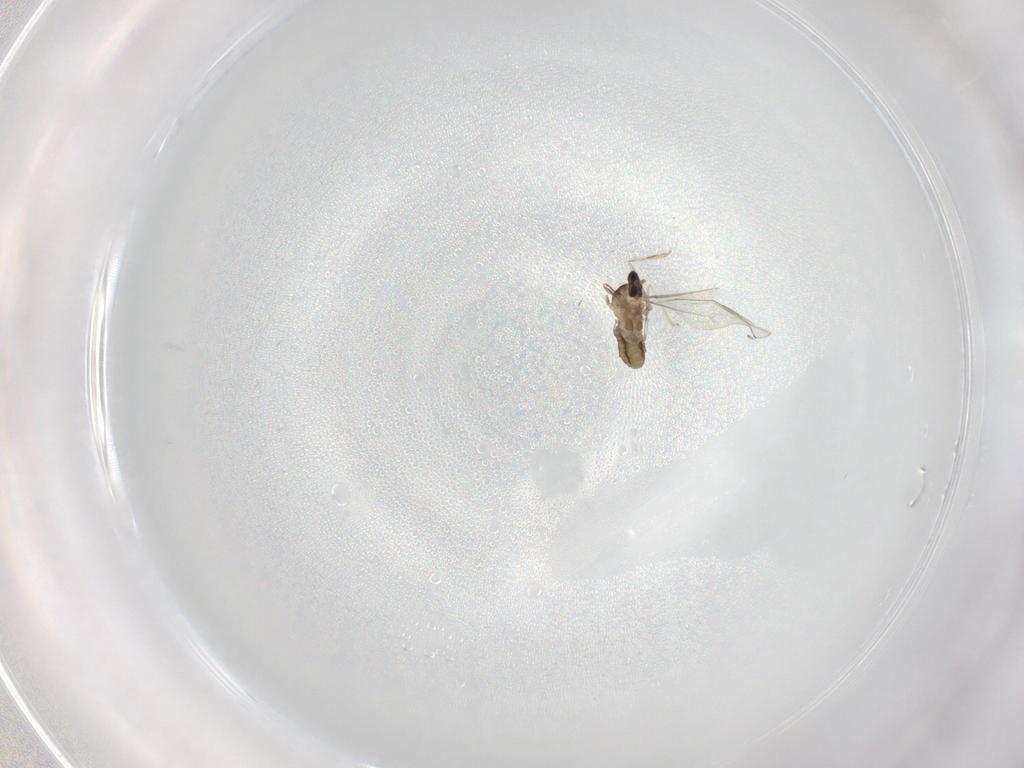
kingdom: Animalia
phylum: Arthropoda
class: Insecta
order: Diptera
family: Cecidomyiidae
